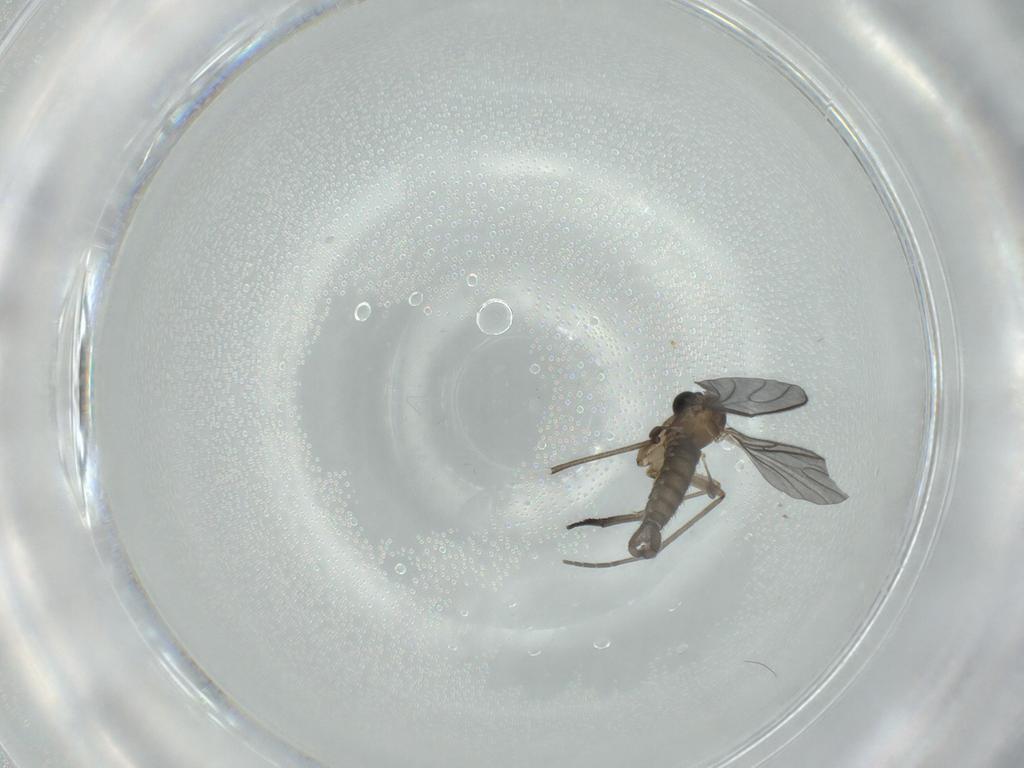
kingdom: Animalia
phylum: Arthropoda
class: Insecta
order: Diptera
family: Sciaridae
